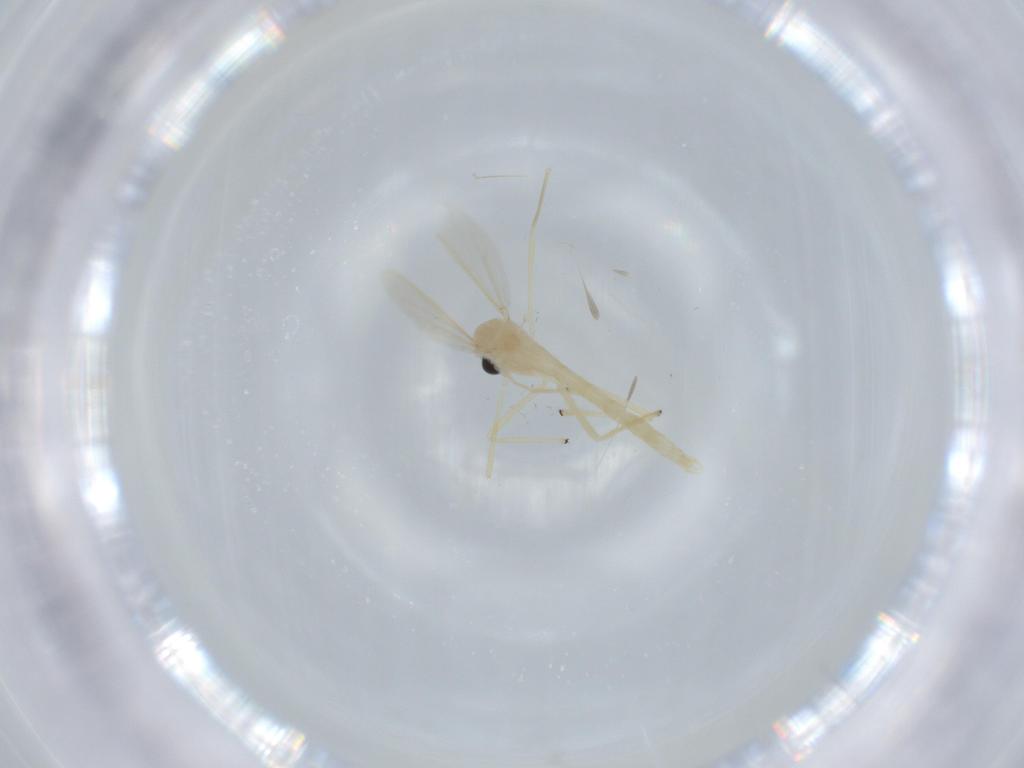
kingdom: Animalia
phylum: Arthropoda
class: Insecta
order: Diptera
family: Chironomidae
